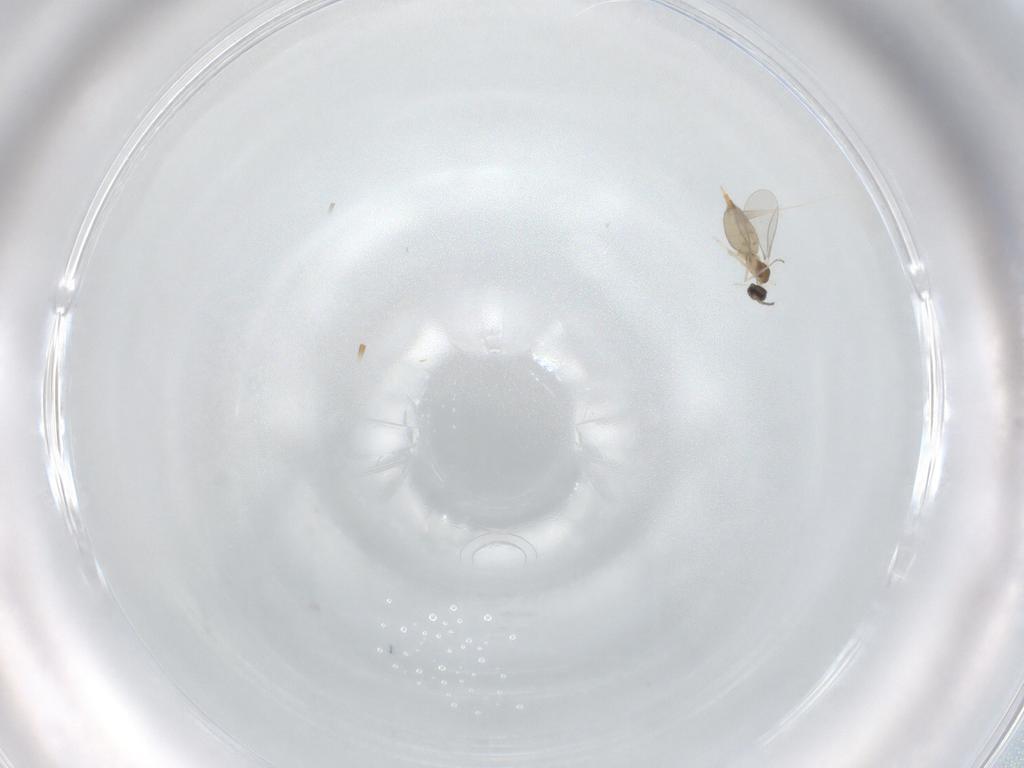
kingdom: Animalia
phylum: Arthropoda
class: Insecta
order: Diptera
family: Cecidomyiidae
